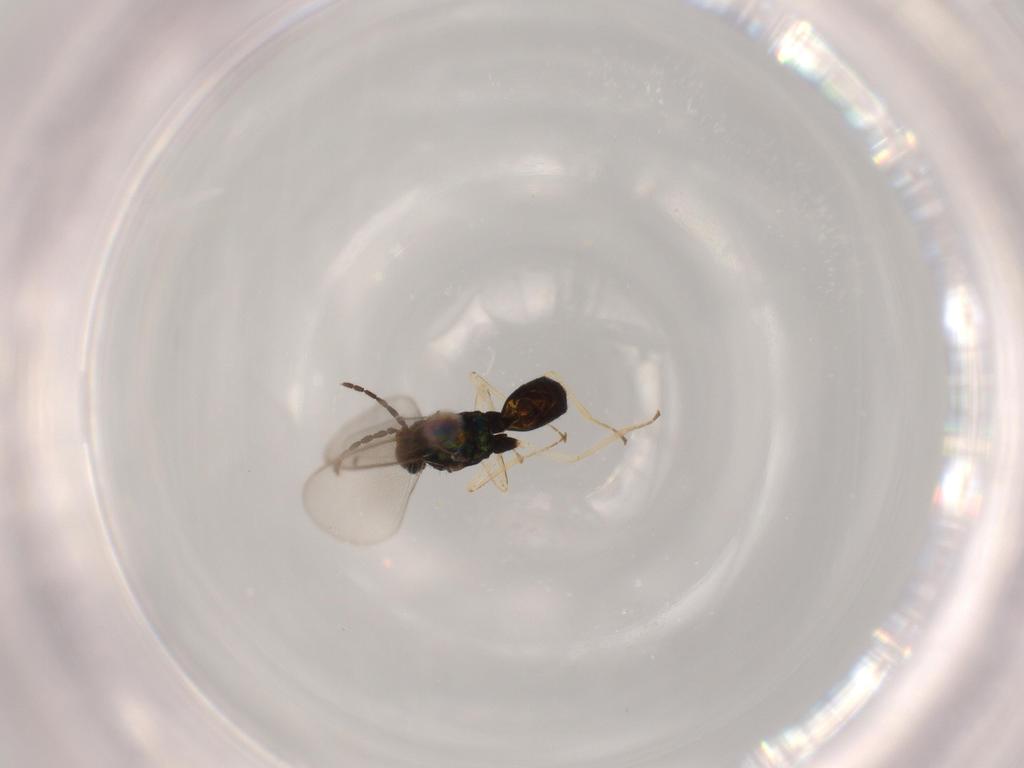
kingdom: Animalia
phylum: Arthropoda
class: Insecta
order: Hymenoptera
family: Eulophidae
